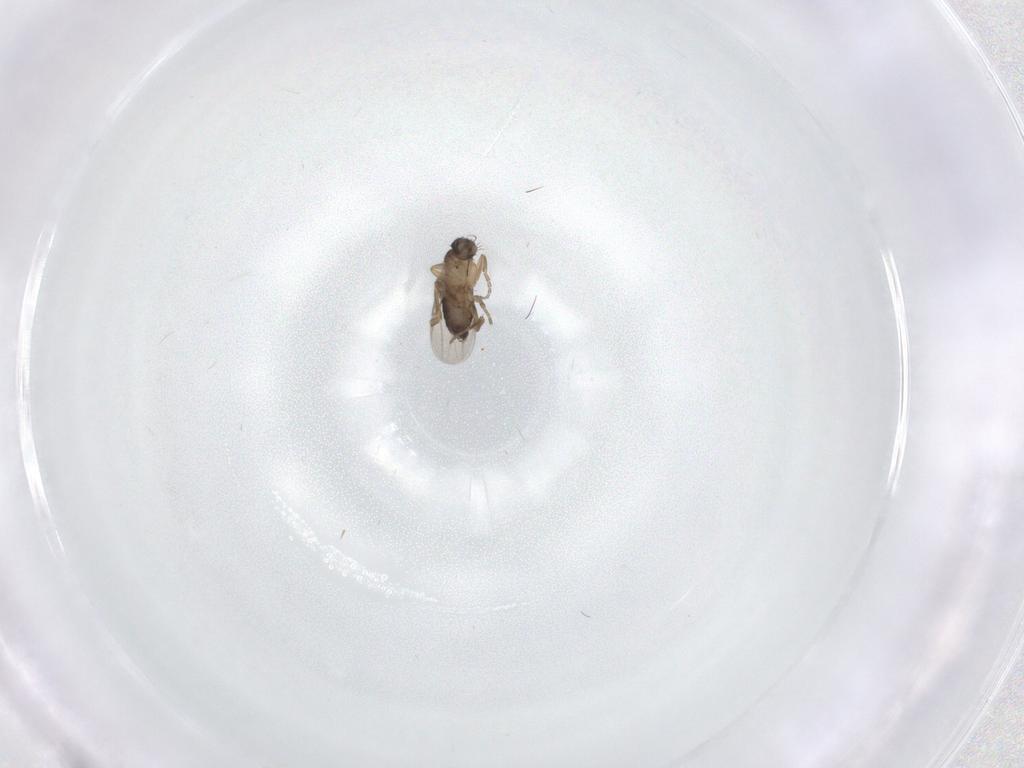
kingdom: Animalia
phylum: Arthropoda
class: Insecta
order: Diptera
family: Phoridae
